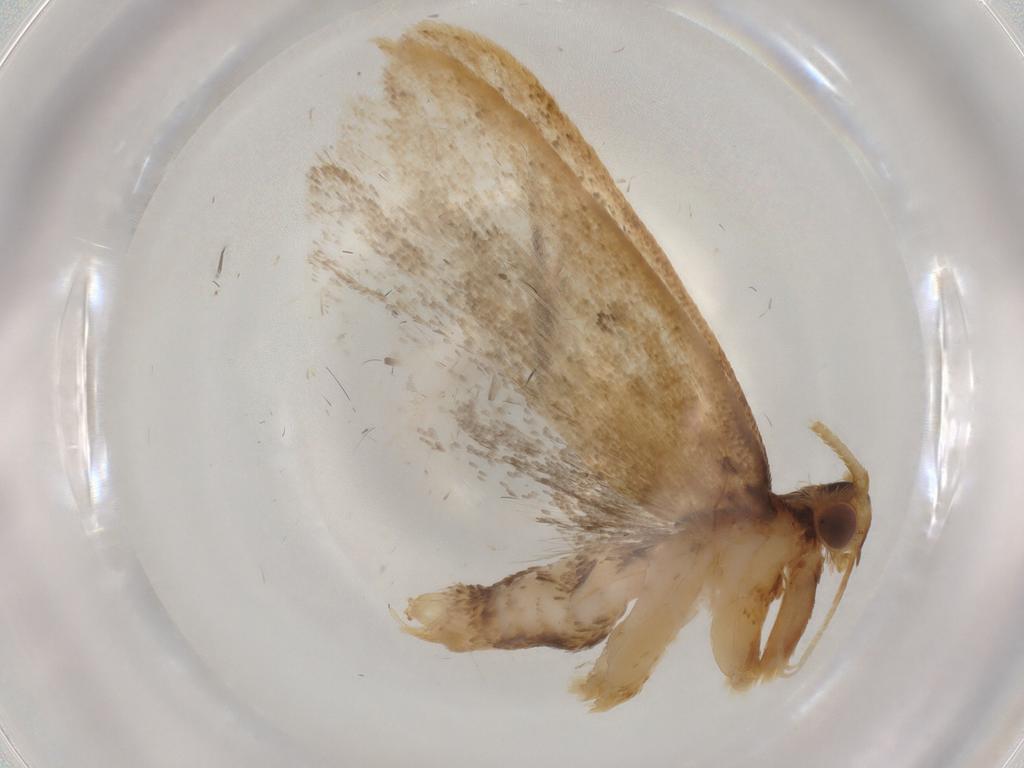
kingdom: Animalia
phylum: Arthropoda
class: Insecta
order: Lepidoptera
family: Lecithoceridae
